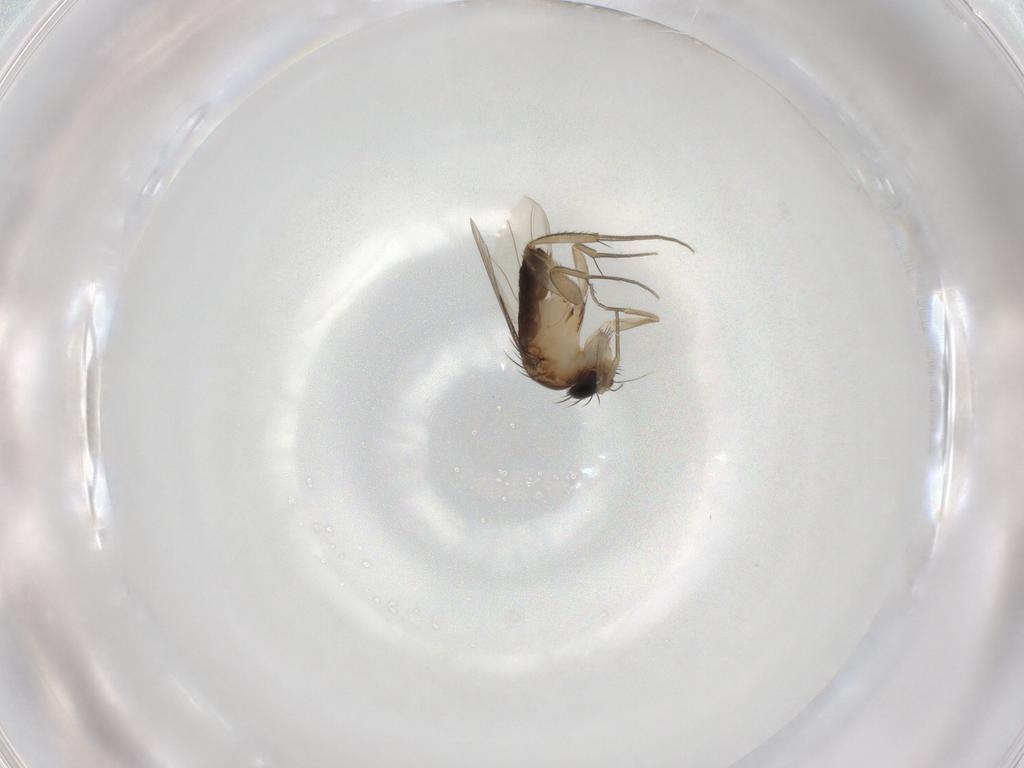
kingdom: Animalia
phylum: Arthropoda
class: Insecta
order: Diptera
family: Phoridae
